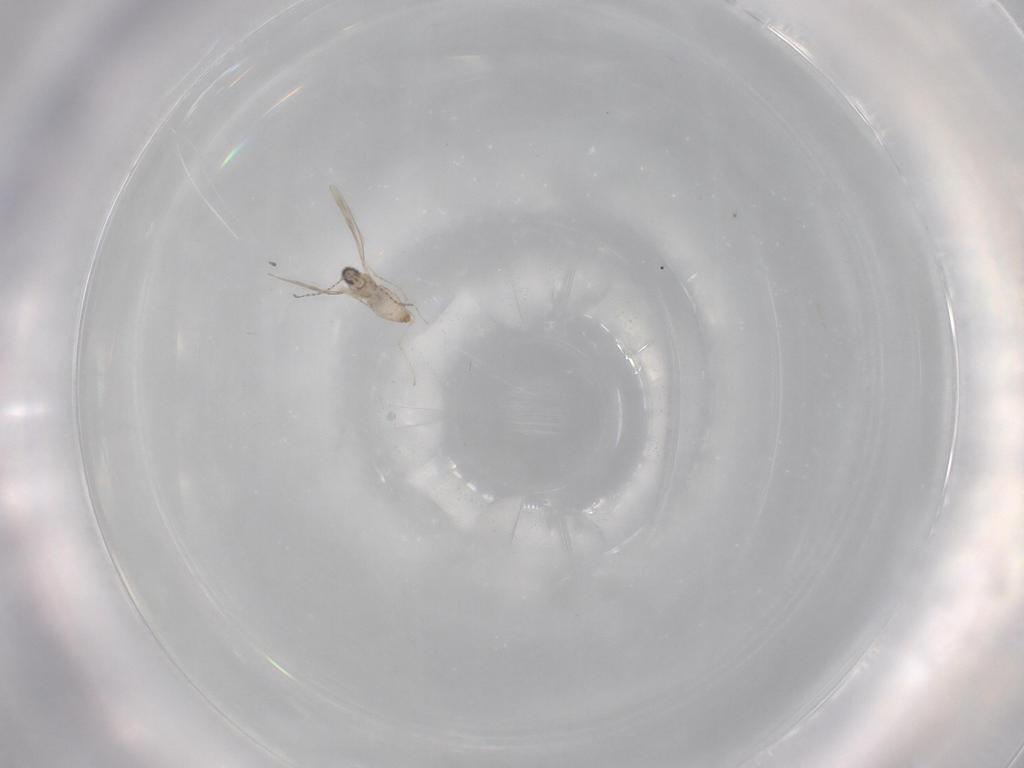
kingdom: Animalia
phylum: Arthropoda
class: Insecta
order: Diptera
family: Cecidomyiidae
